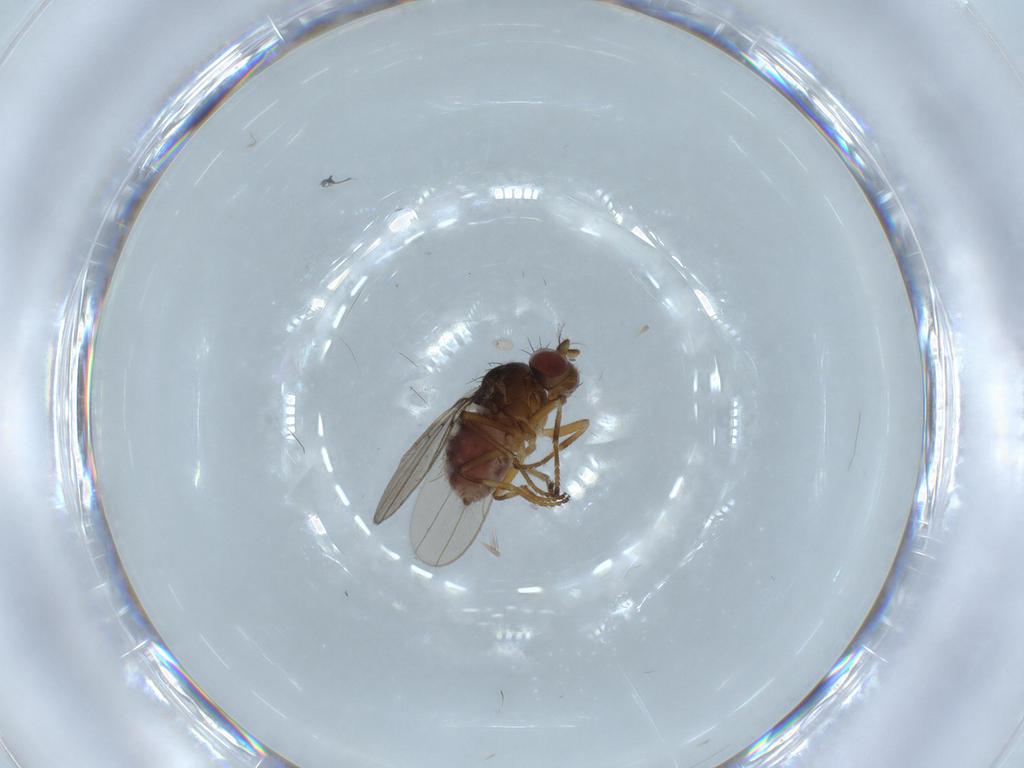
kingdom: Animalia
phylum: Arthropoda
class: Insecta
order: Diptera
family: Ephydridae
